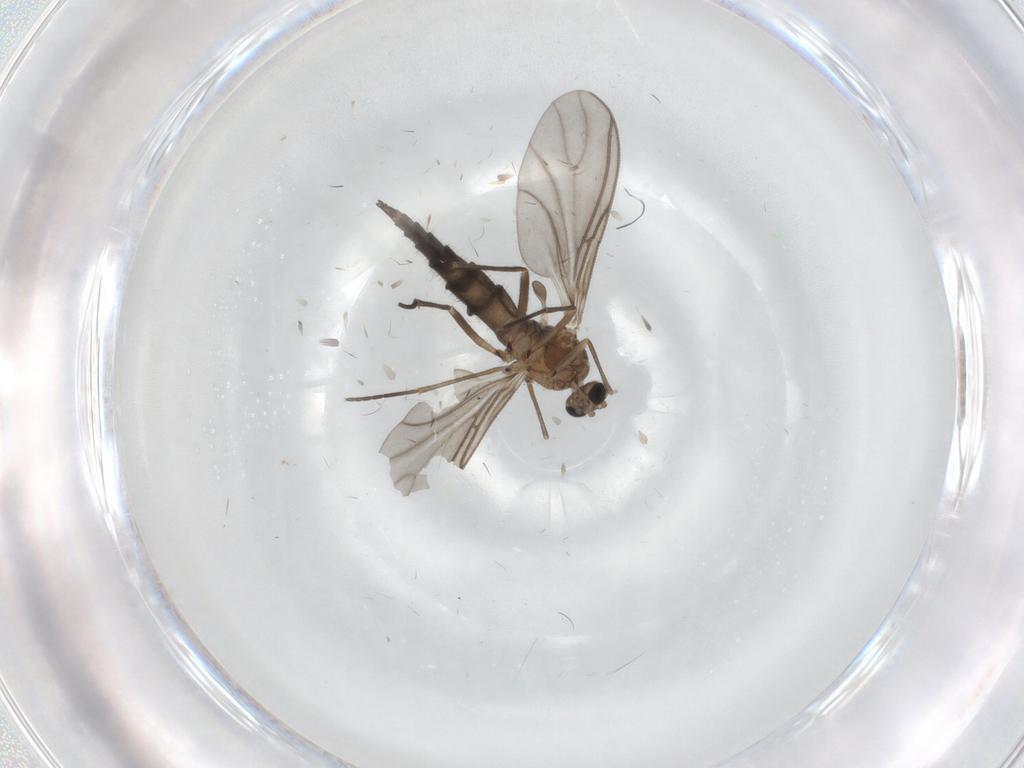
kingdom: Animalia
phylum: Arthropoda
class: Insecta
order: Diptera
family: Sciaridae
